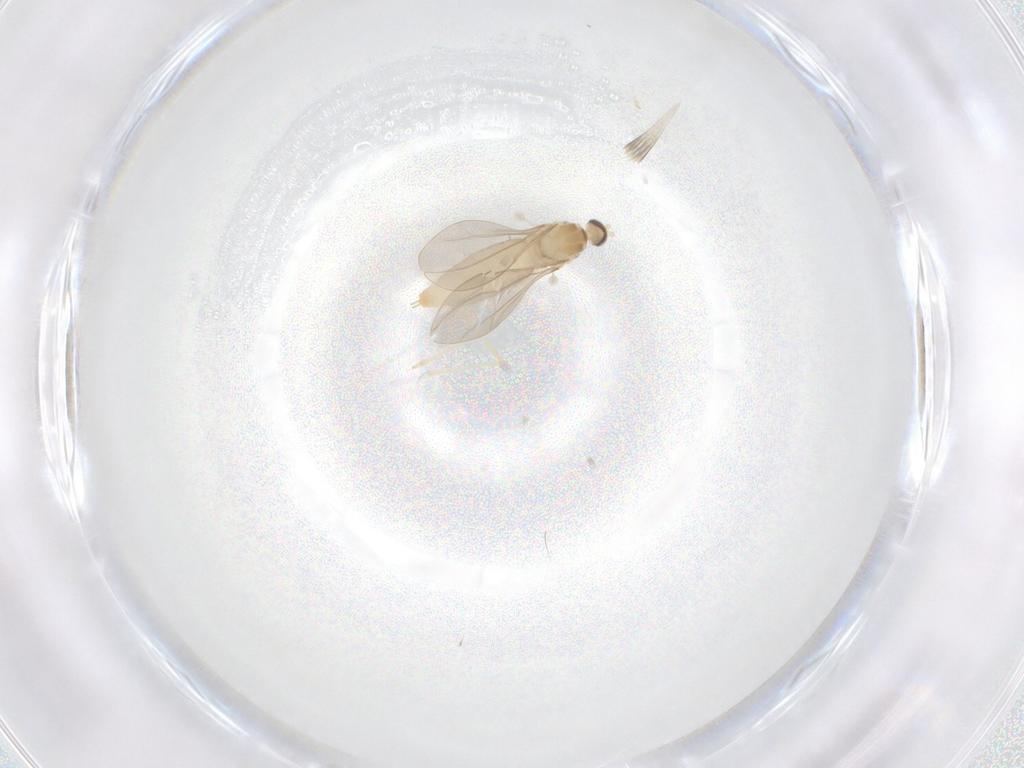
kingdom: Animalia
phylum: Arthropoda
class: Insecta
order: Diptera
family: Cecidomyiidae
